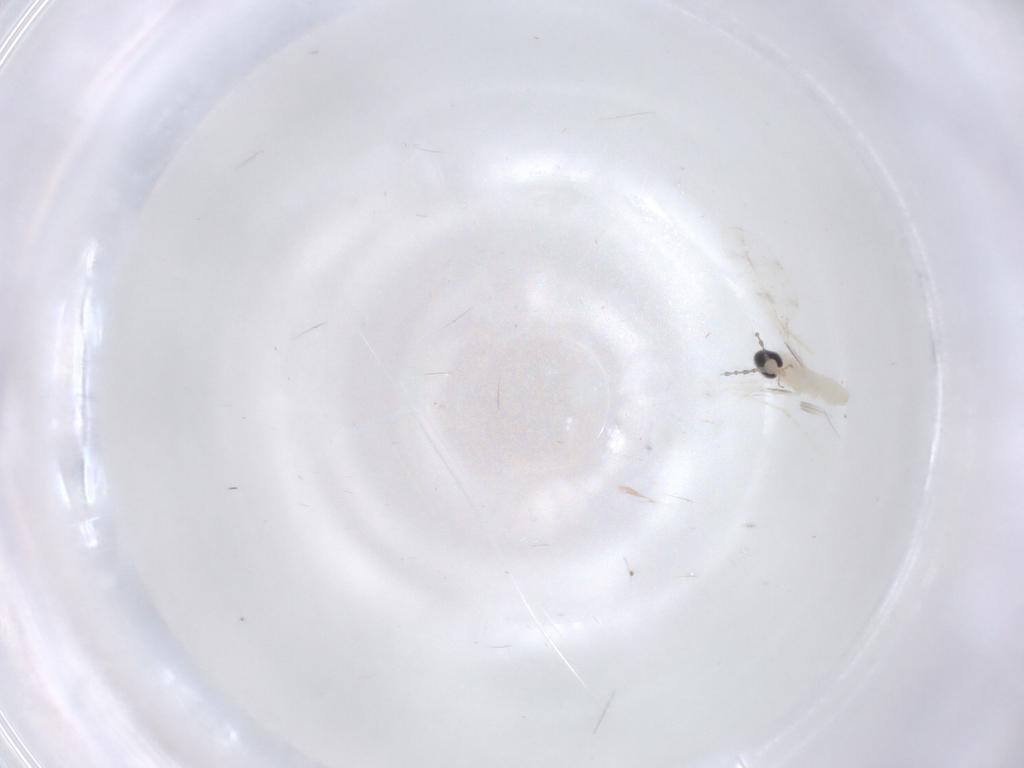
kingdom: Animalia
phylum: Arthropoda
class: Insecta
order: Diptera
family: Cecidomyiidae
